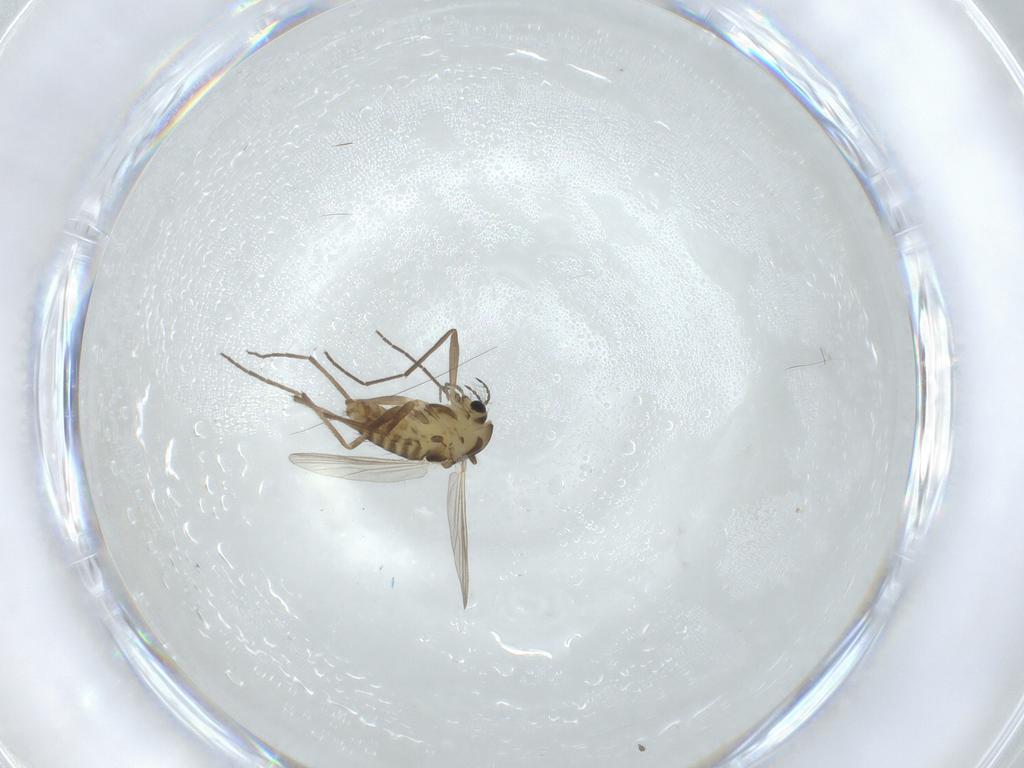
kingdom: Animalia
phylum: Arthropoda
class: Insecta
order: Diptera
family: Chironomidae
